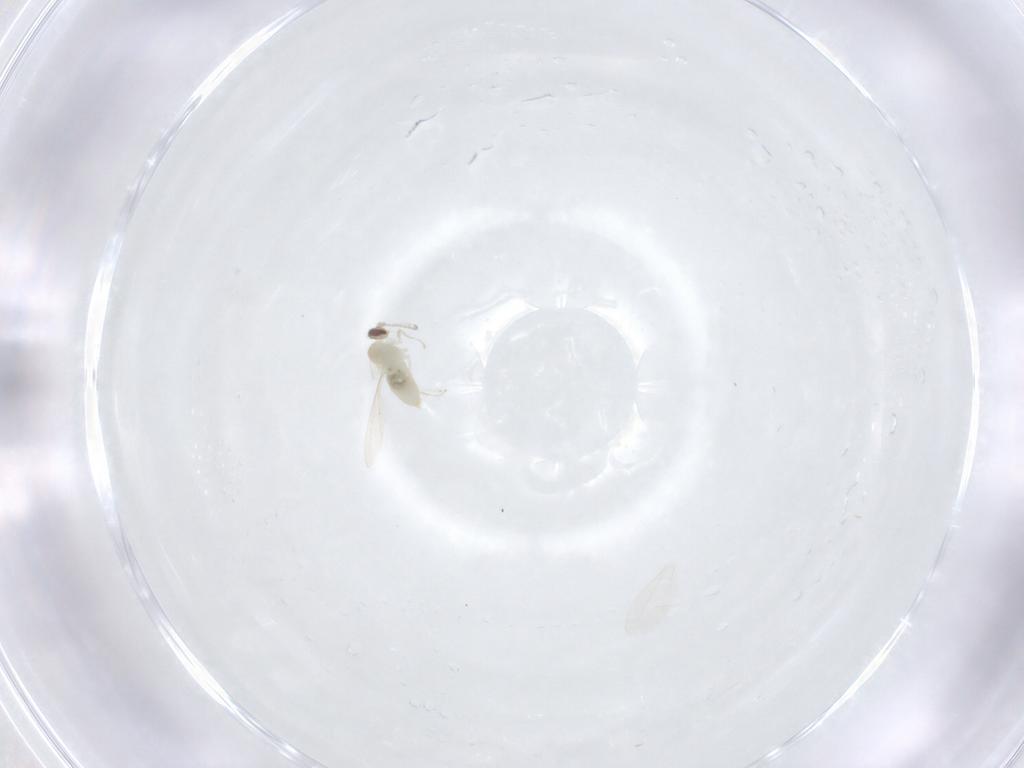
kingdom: Animalia
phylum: Arthropoda
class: Insecta
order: Diptera
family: Cecidomyiidae
